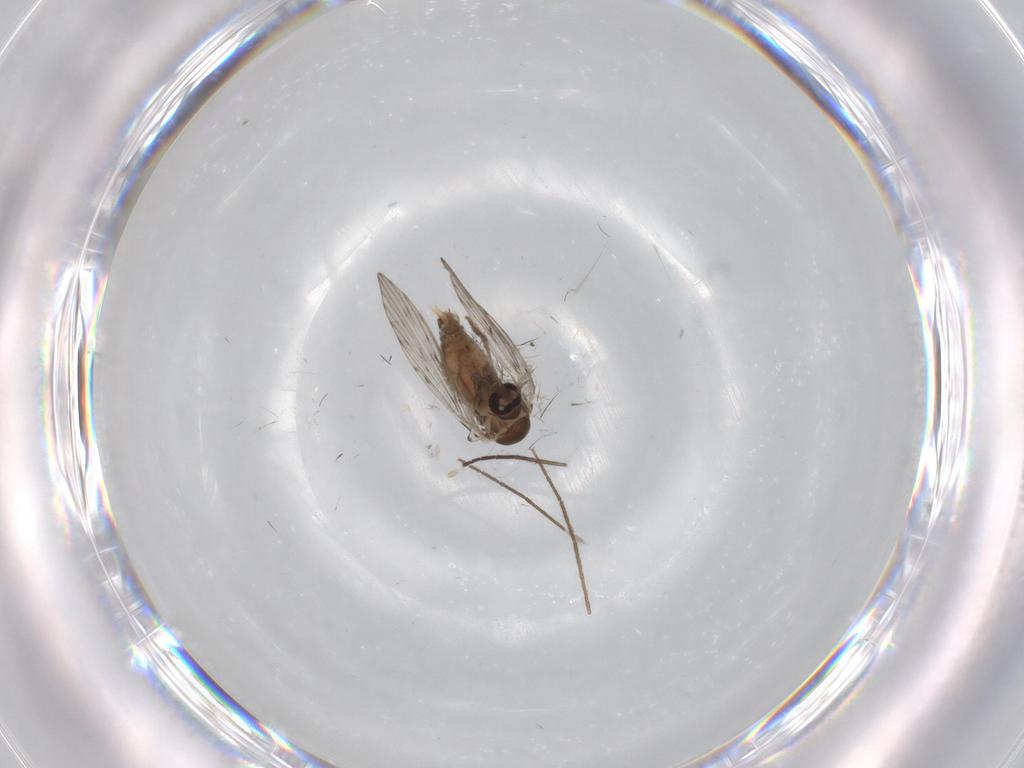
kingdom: Animalia
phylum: Arthropoda
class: Insecta
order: Diptera
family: Psychodidae
